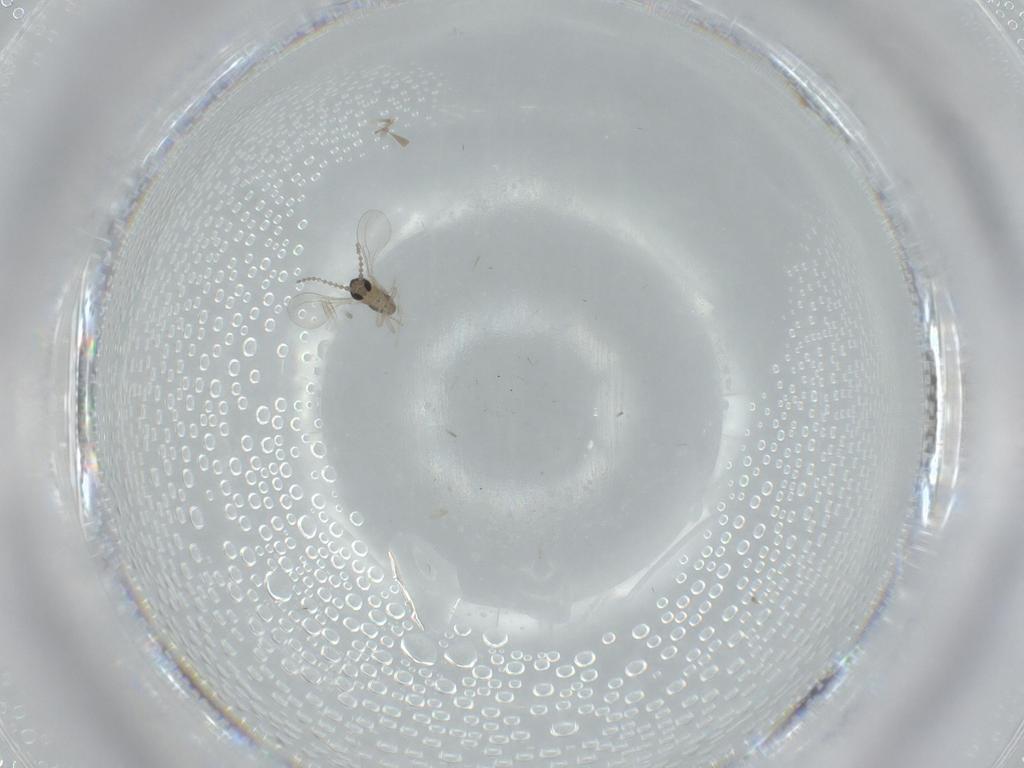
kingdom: Animalia
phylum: Arthropoda
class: Insecta
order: Diptera
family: Cecidomyiidae
